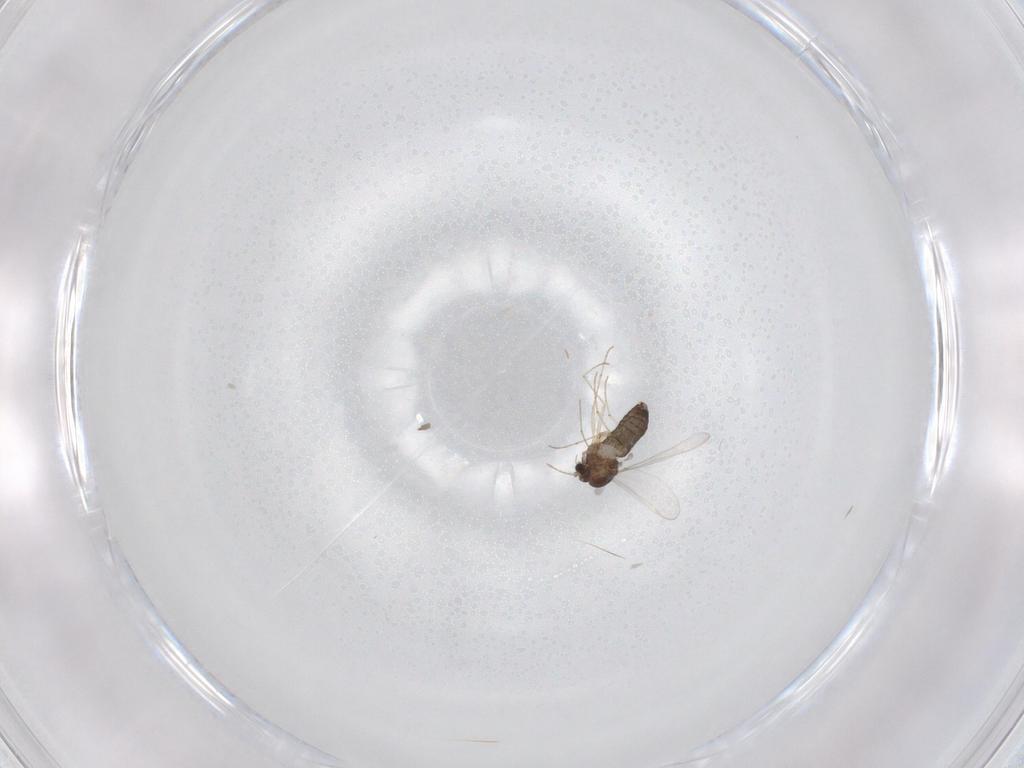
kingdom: Animalia
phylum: Arthropoda
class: Insecta
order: Diptera
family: Chironomidae
